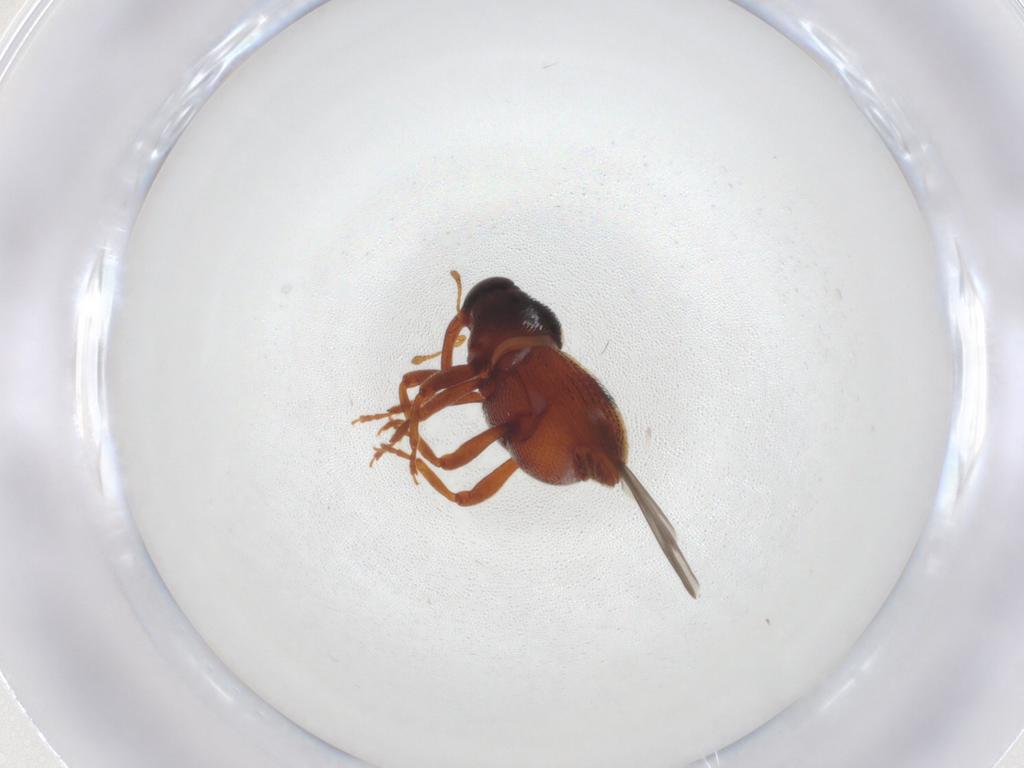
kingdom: Animalia
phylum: Arthropoda
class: Insecta
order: Coleoptera
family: Curculionidae
